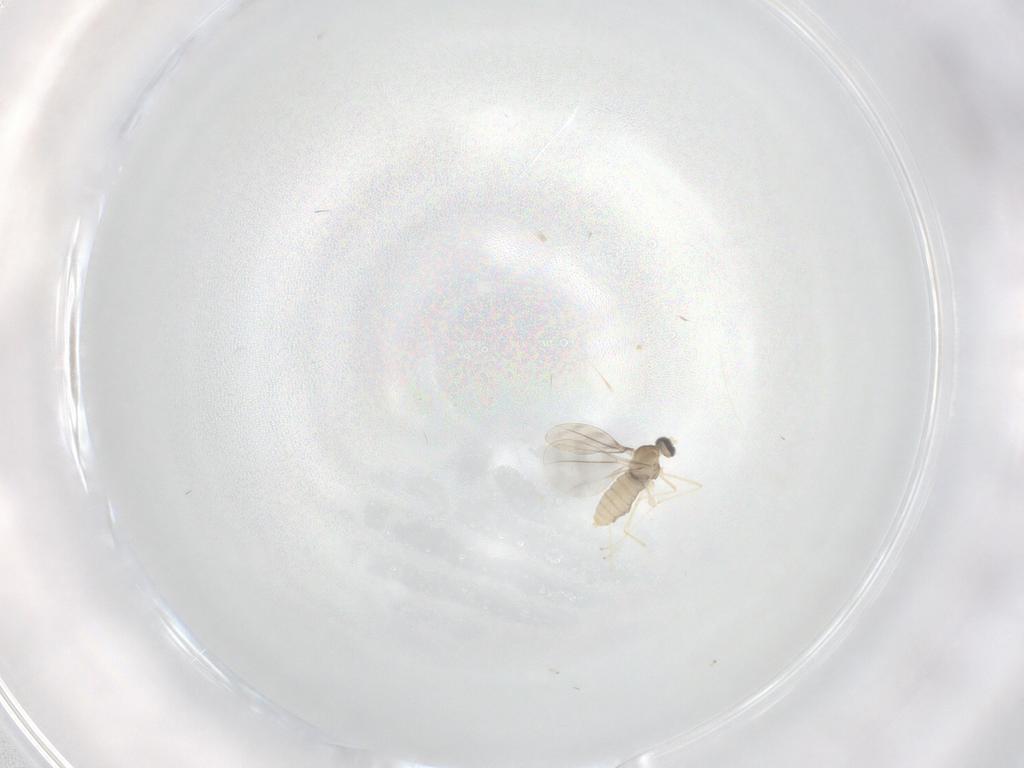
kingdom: Animalia
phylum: Arthropoda
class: Insecta
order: Diptera
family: Cecidomyiidae
